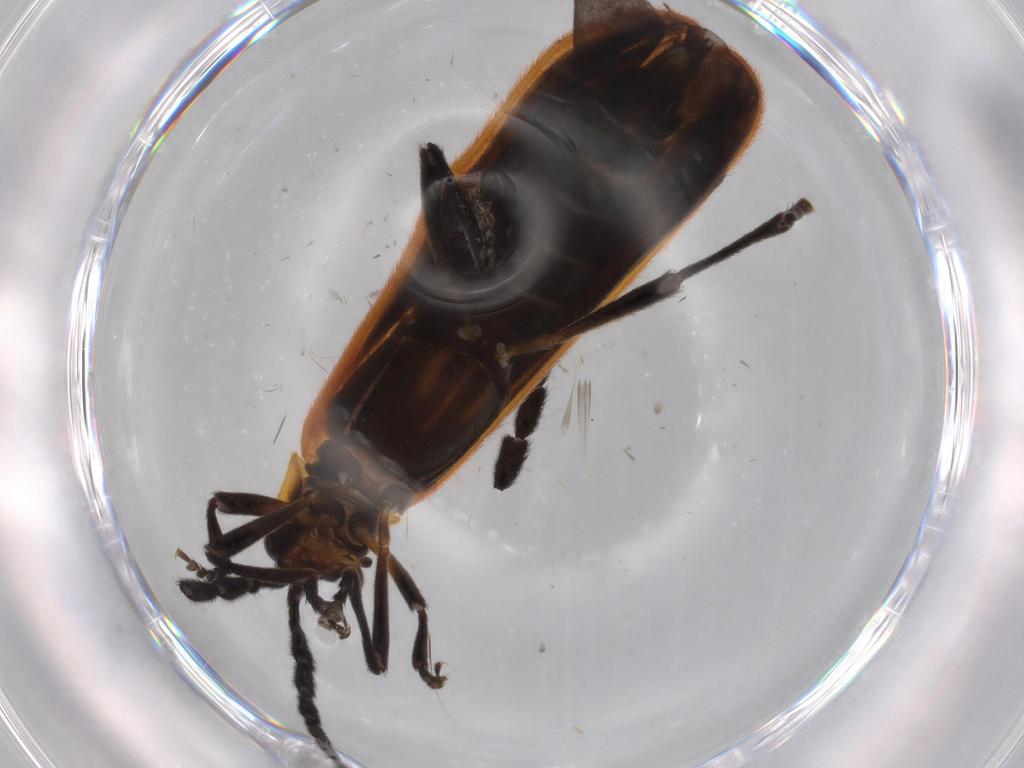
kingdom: Animalia
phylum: Arthropoda
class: Insecta
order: Coleoptera
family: Lycidae
